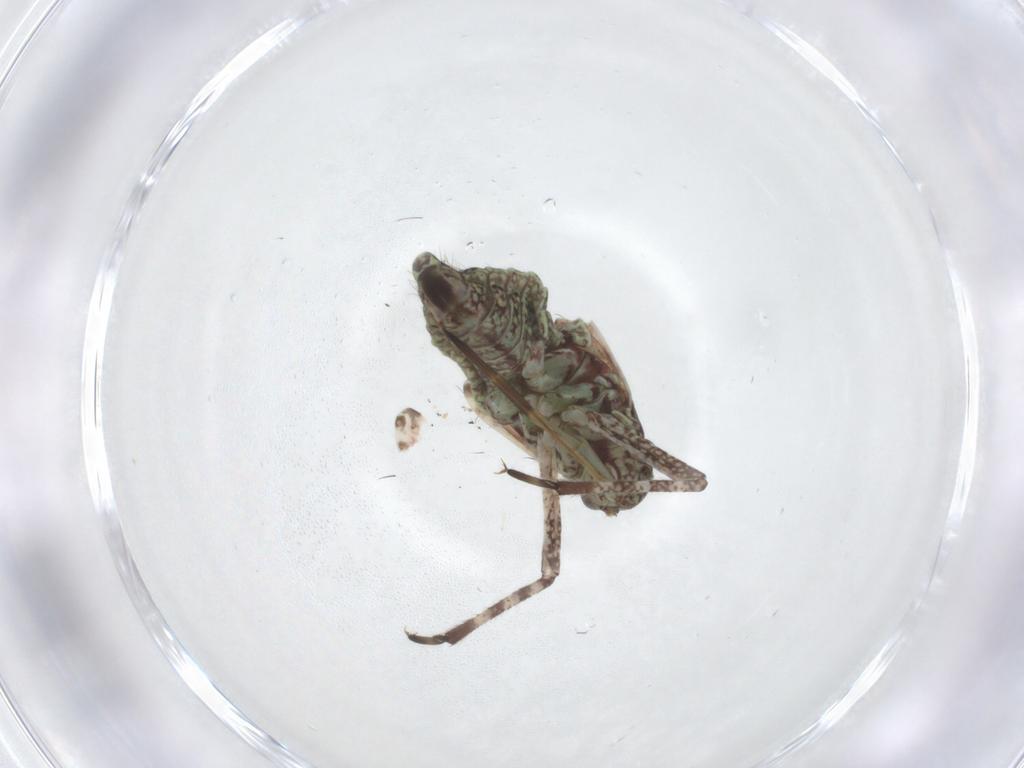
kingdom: Animalia
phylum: Arthropoda
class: Insecta
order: Hemiptera
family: Miridae
